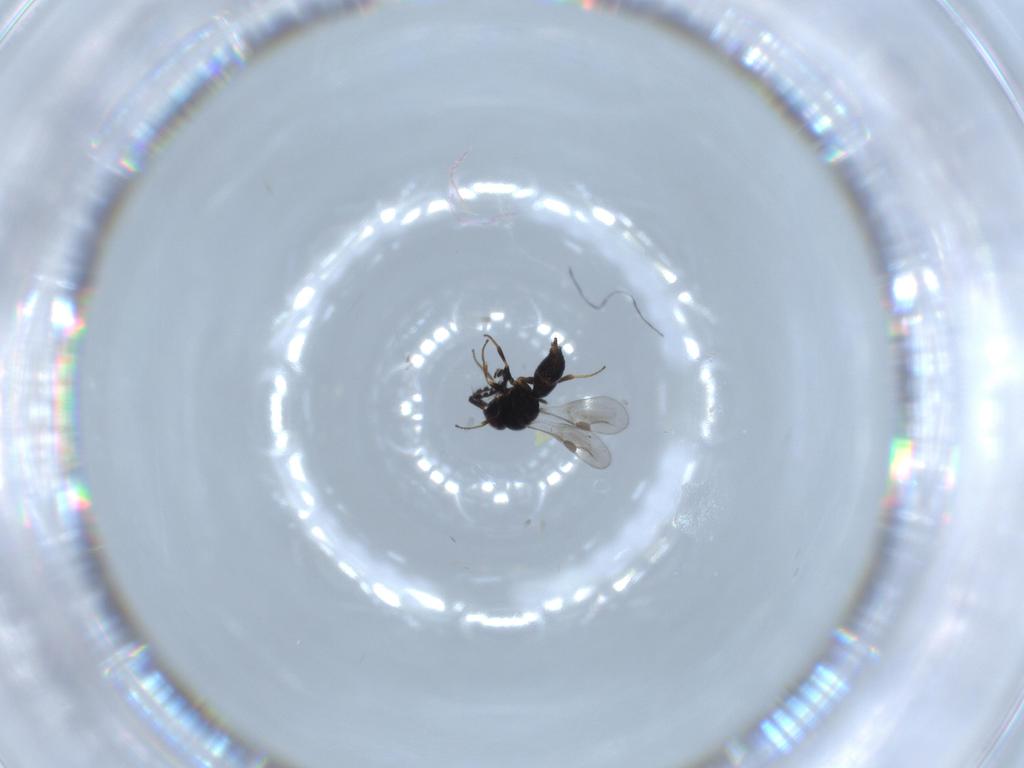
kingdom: Animalia
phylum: Arthropoda
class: Insecta
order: Hymenoptera
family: Megaspilidae
